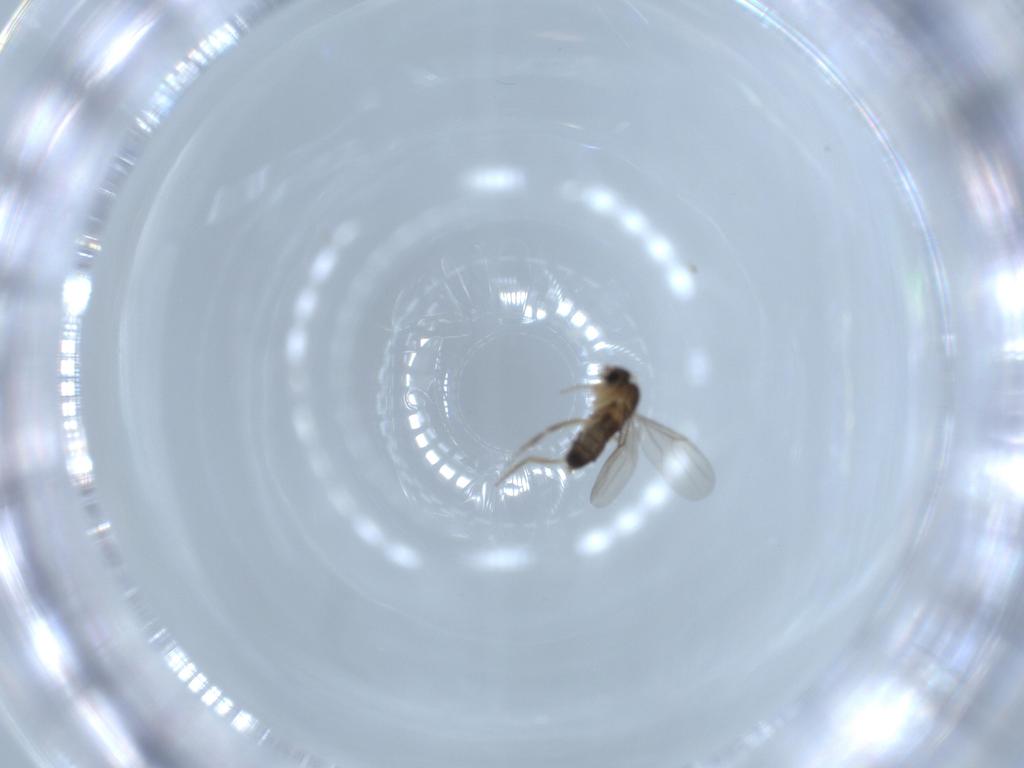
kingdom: Animalia
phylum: Arthropoda
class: Insecta
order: Diptera
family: Phoridae
